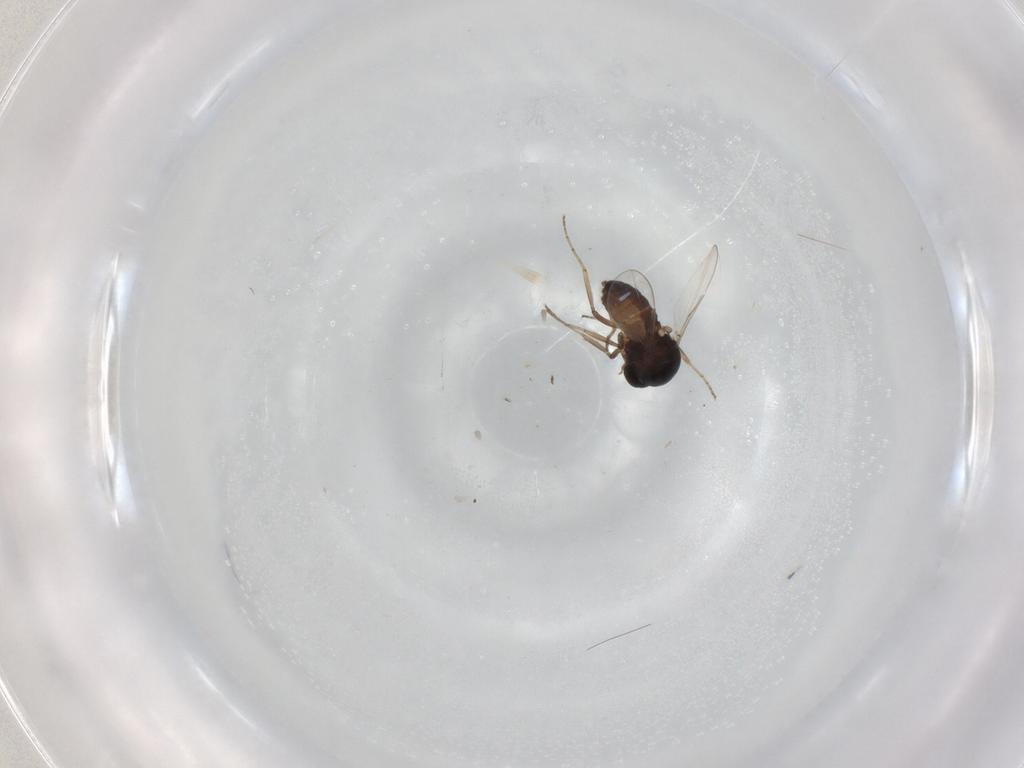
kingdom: Animalia
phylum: Arthropoda
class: Insecta
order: Diptera
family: Ceratopogonidae
